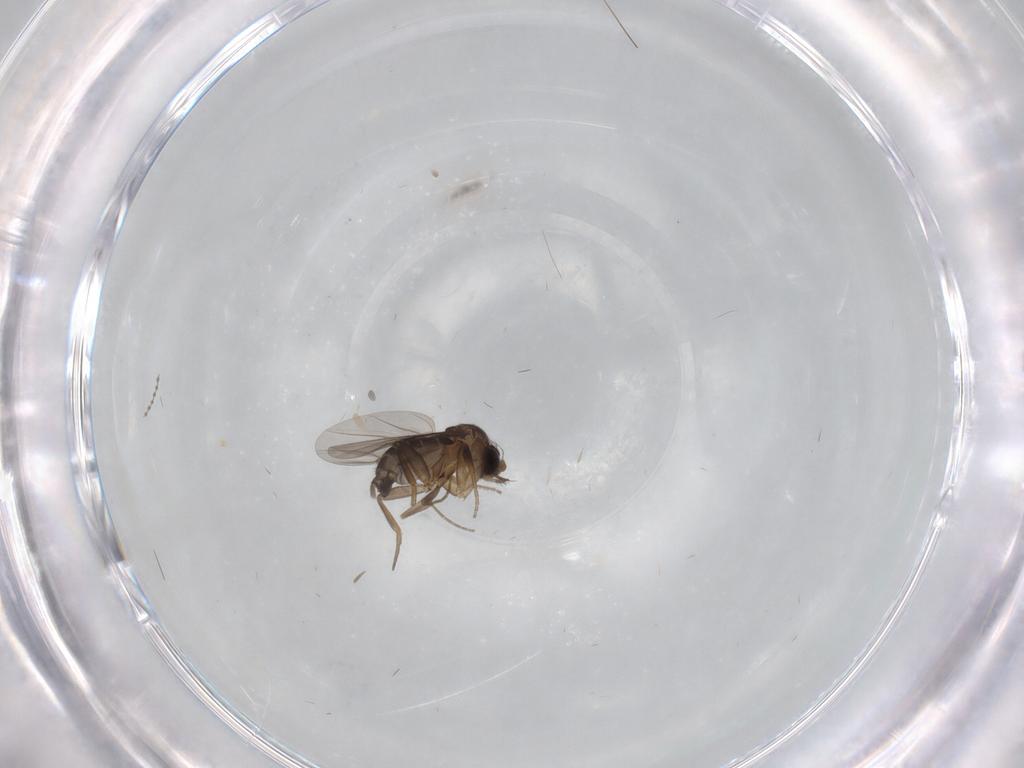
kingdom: Animalia
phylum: Arthropoda
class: Insecta
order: Diptera
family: Phoridae
